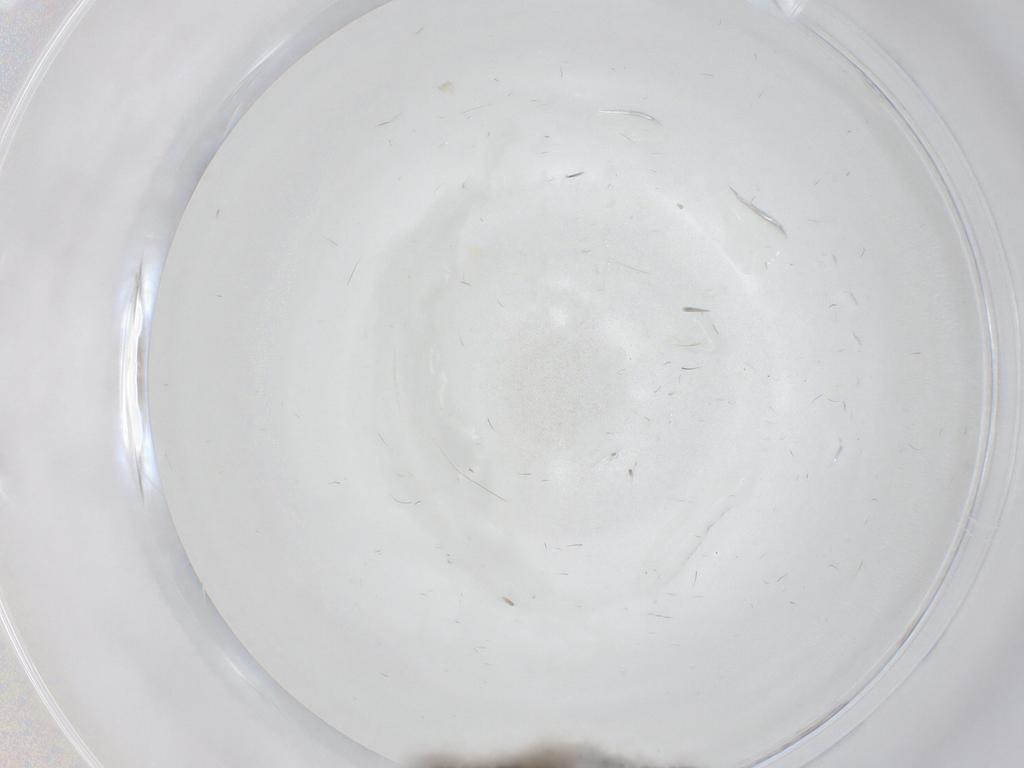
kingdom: Animalia
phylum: Arthropoda
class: Insecta
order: Diptera
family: Sciaridae
